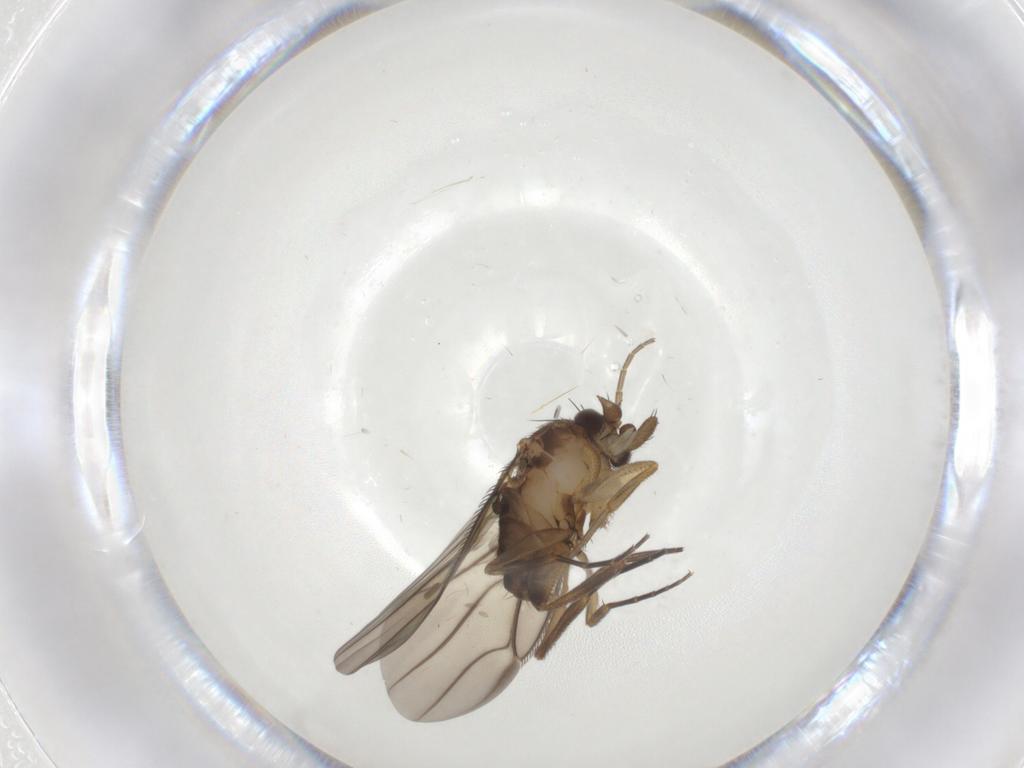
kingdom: Animalia
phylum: Arthropoda
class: Insecta
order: Diptera
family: Phoridae
